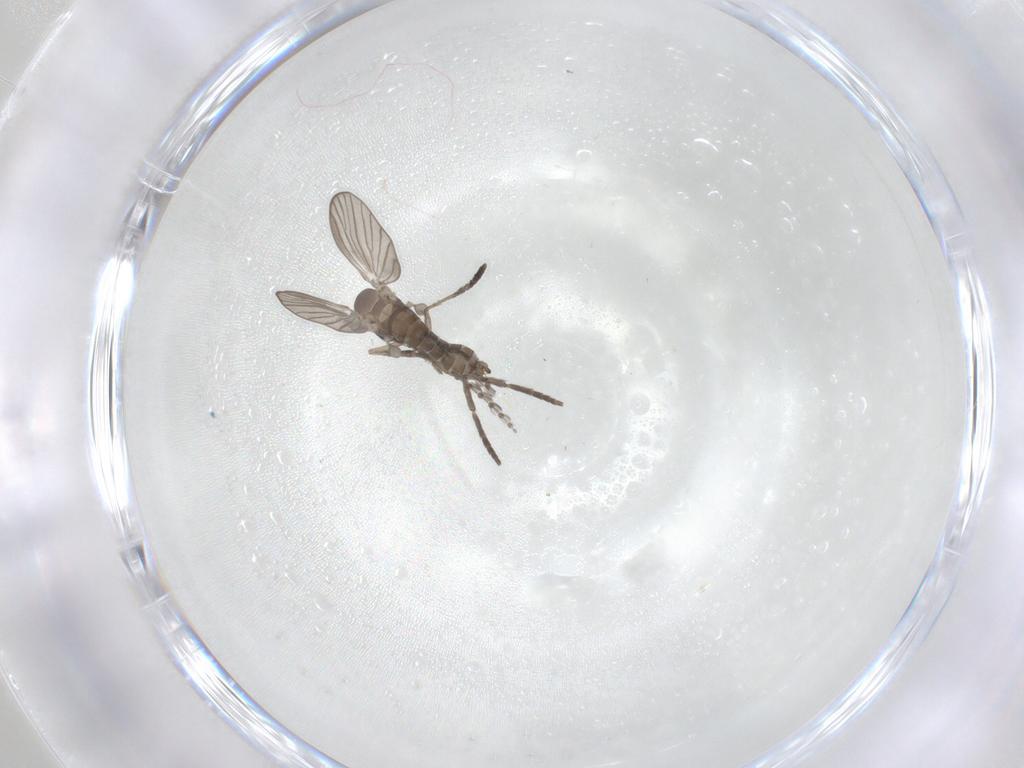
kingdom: Animalia
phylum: Arthropoda
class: Insecta
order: Diptera
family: Psychodidae
